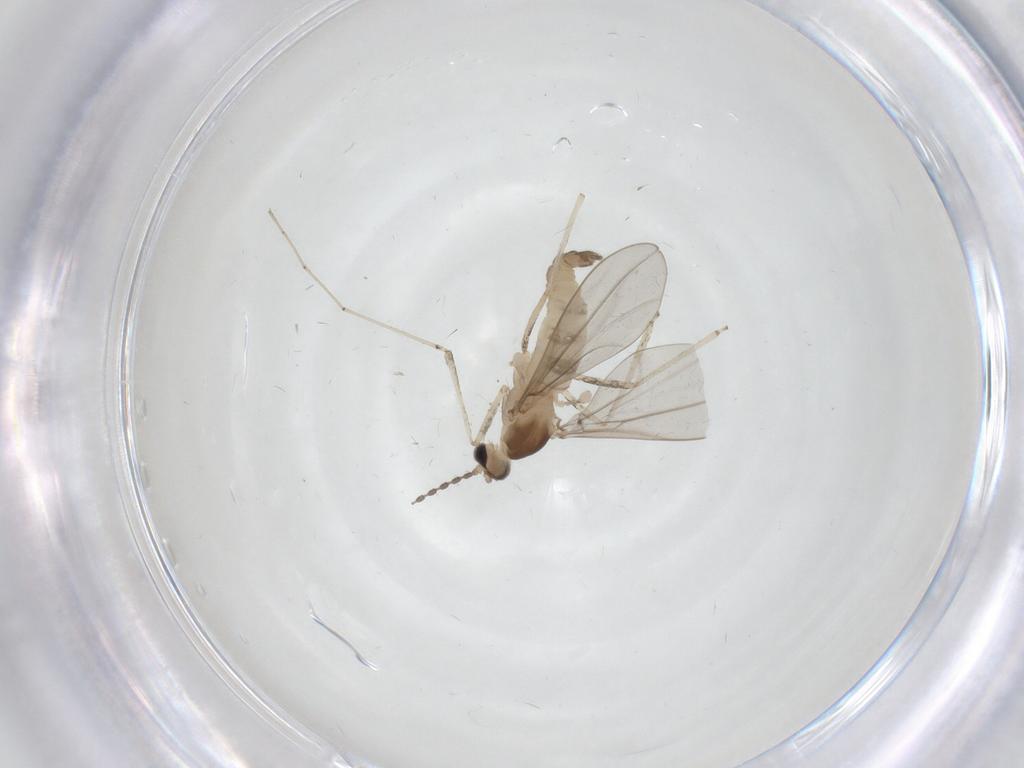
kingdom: Animalia
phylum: Arthropoda
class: Insecta
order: Diptera
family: Cecidomyiidae
